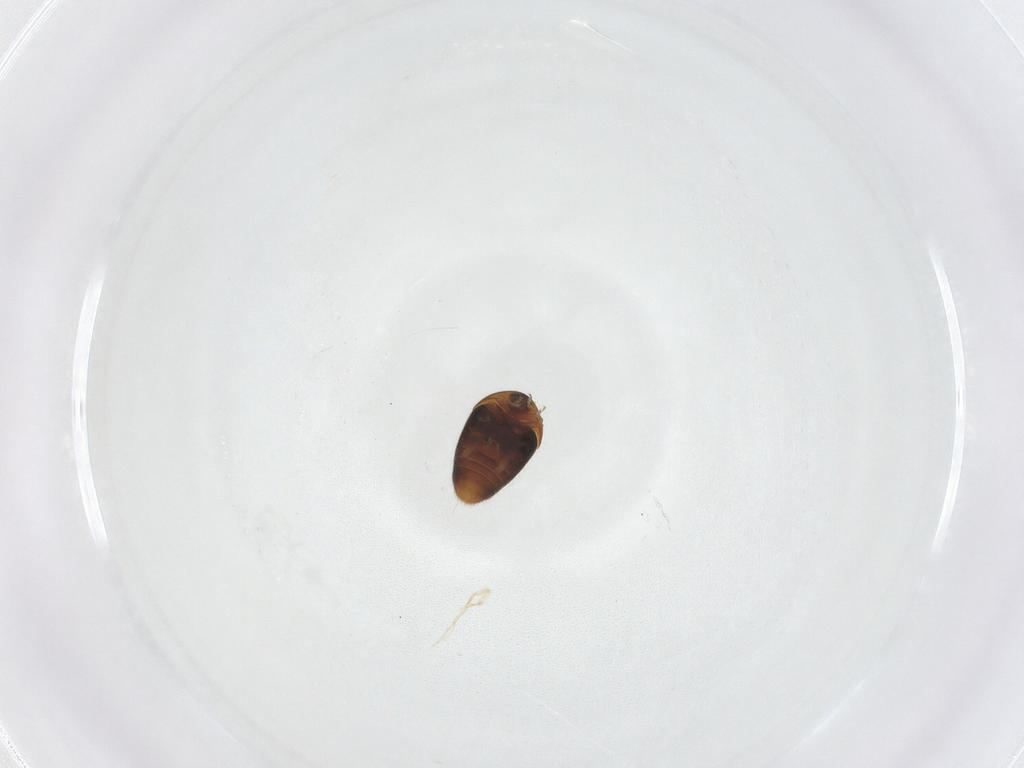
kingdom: Animalia
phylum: Arthropoda
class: Insecta
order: Coleoptera
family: Corylophidae
